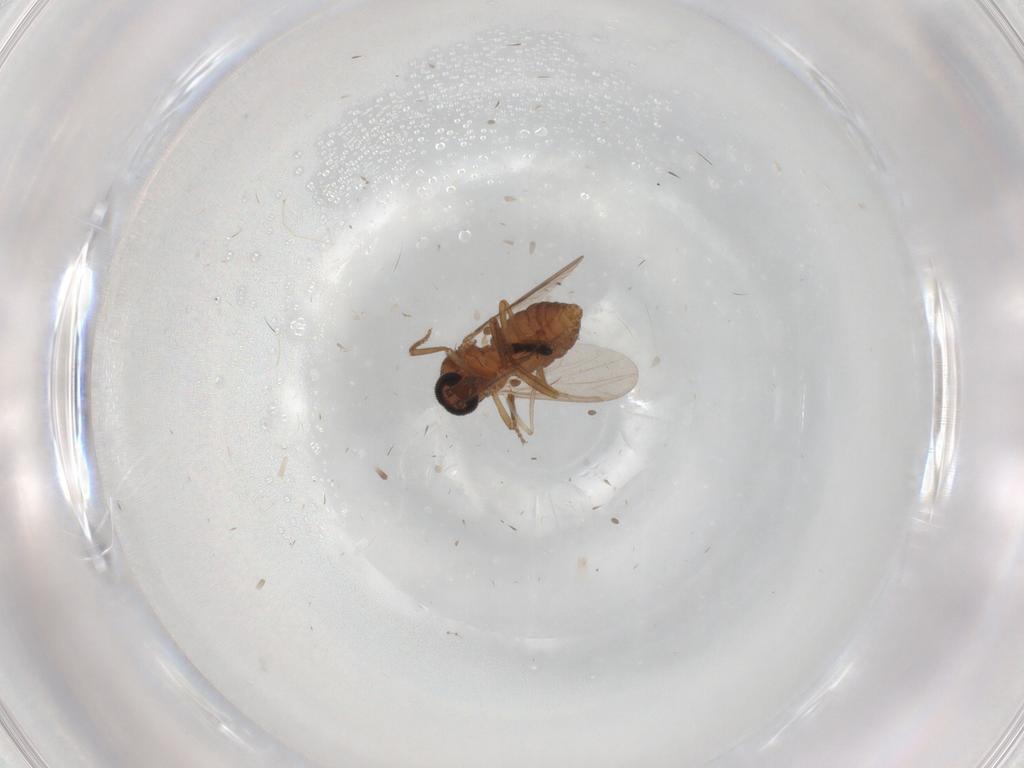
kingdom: Animalia
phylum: Arthropoda
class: Insecta
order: Diptera
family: Ceratopogonidae
